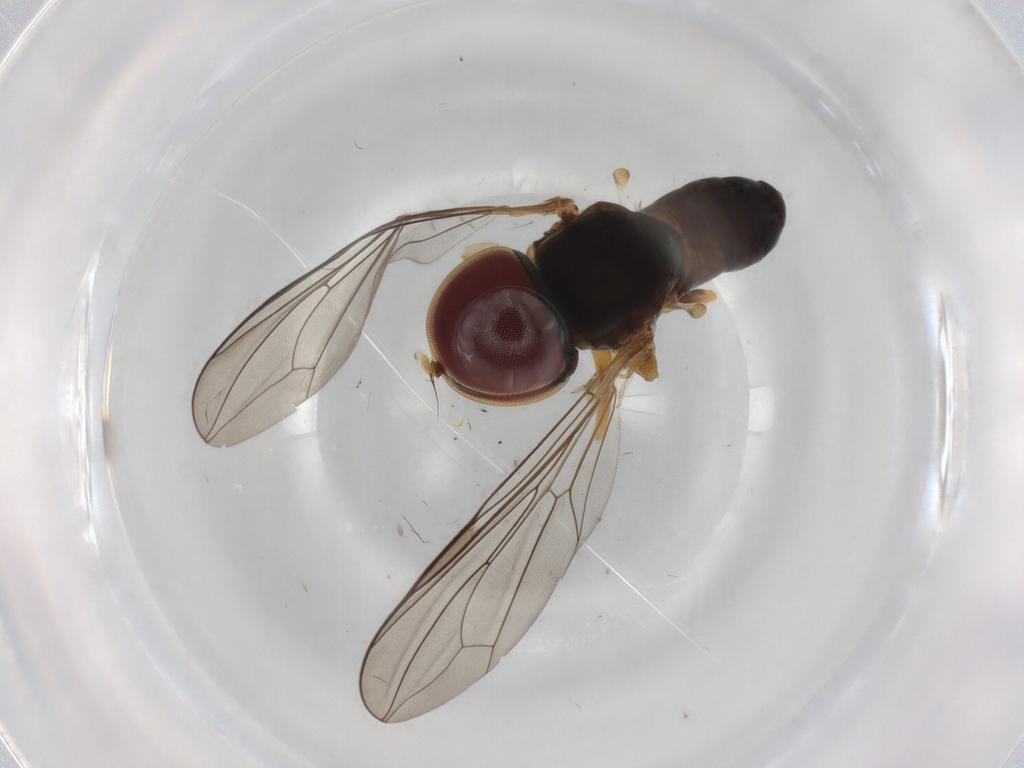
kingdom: Animalia
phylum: Arthropoda
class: Insecta
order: Diptera
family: Pipunculidae
